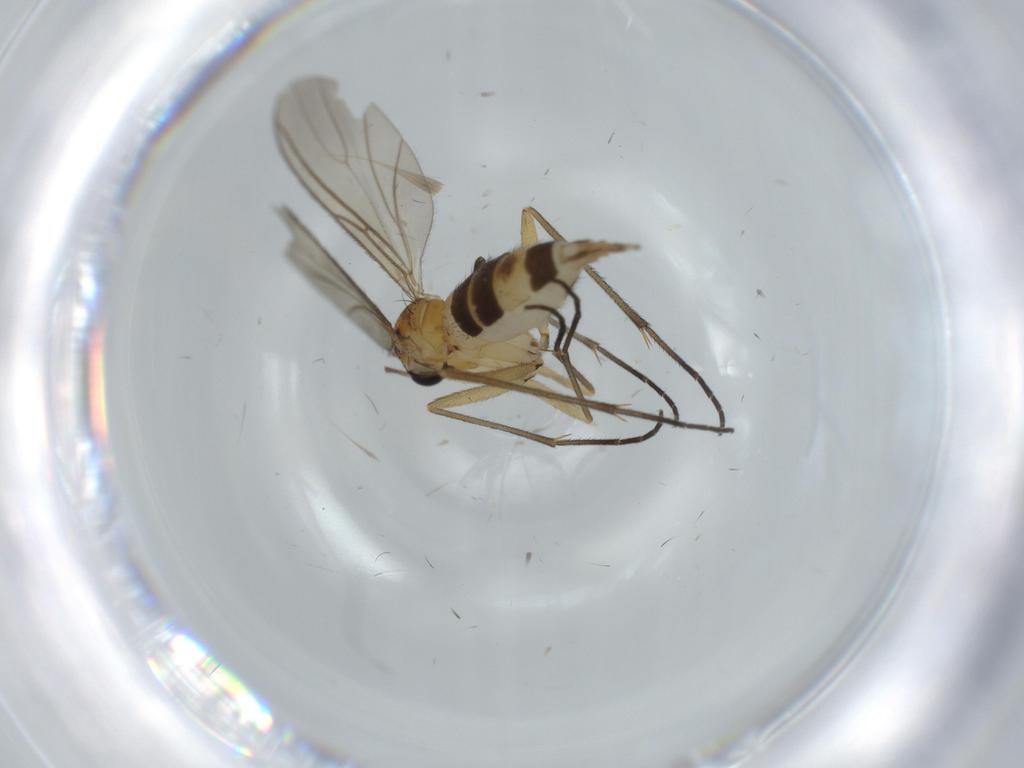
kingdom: Animalia
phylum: Arthropoda
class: Insecta
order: Diptera
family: Sciaridae
